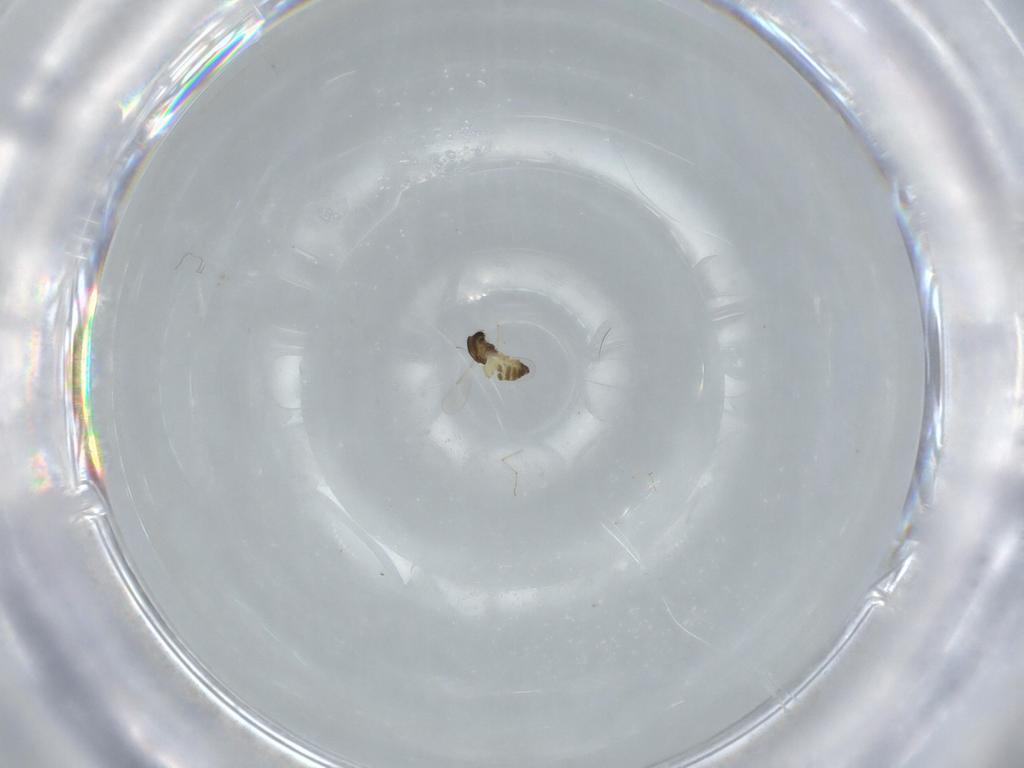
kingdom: Animalia
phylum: Arthropoda
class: Insecta
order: Diptera
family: Chironomidae
